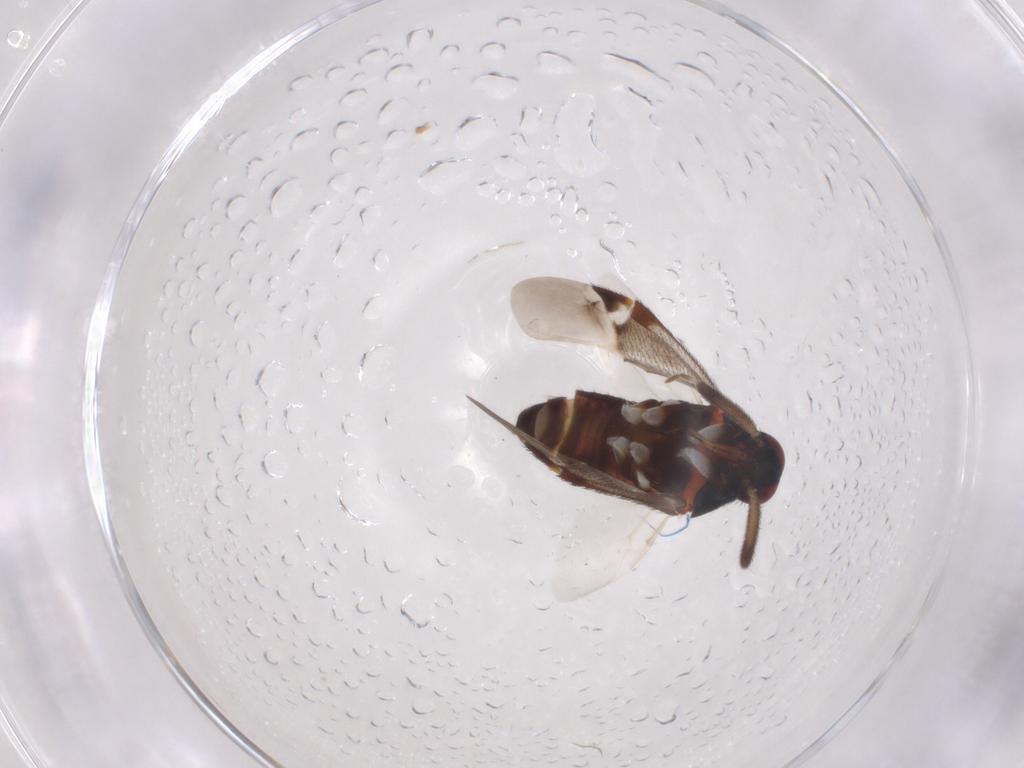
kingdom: Animalia
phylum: Arthropoda
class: Insecta
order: Hemiptera
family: Miridae
